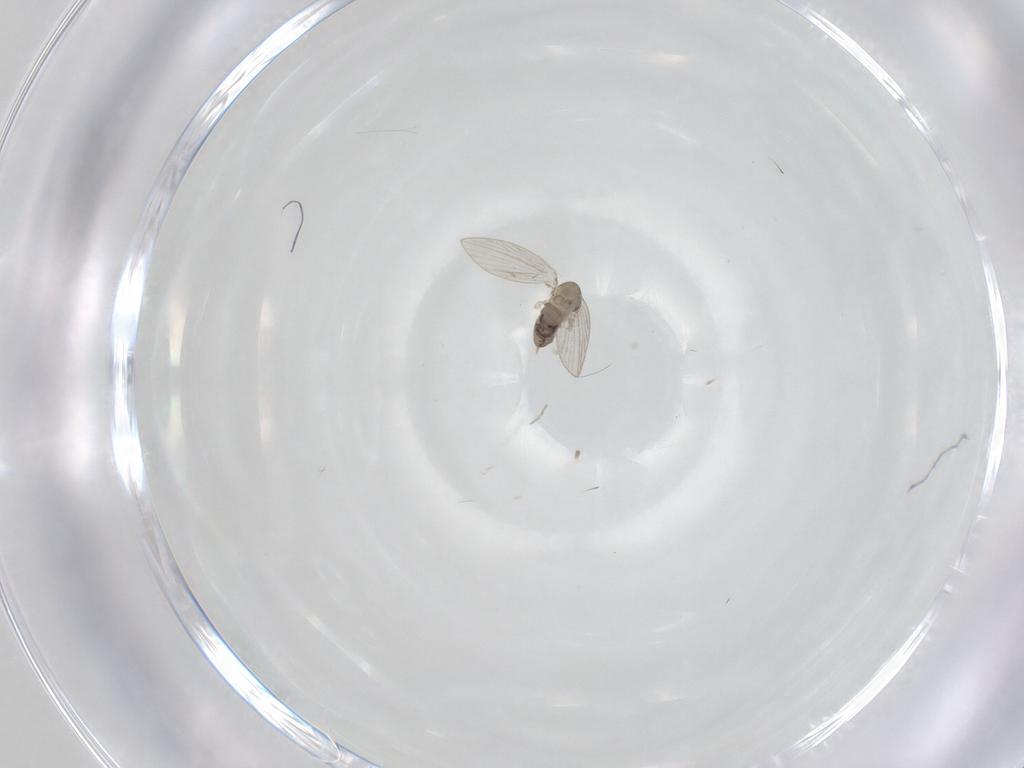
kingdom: Animalia
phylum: Arthropoda
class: Insecta
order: Diptera
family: Psychodidae
